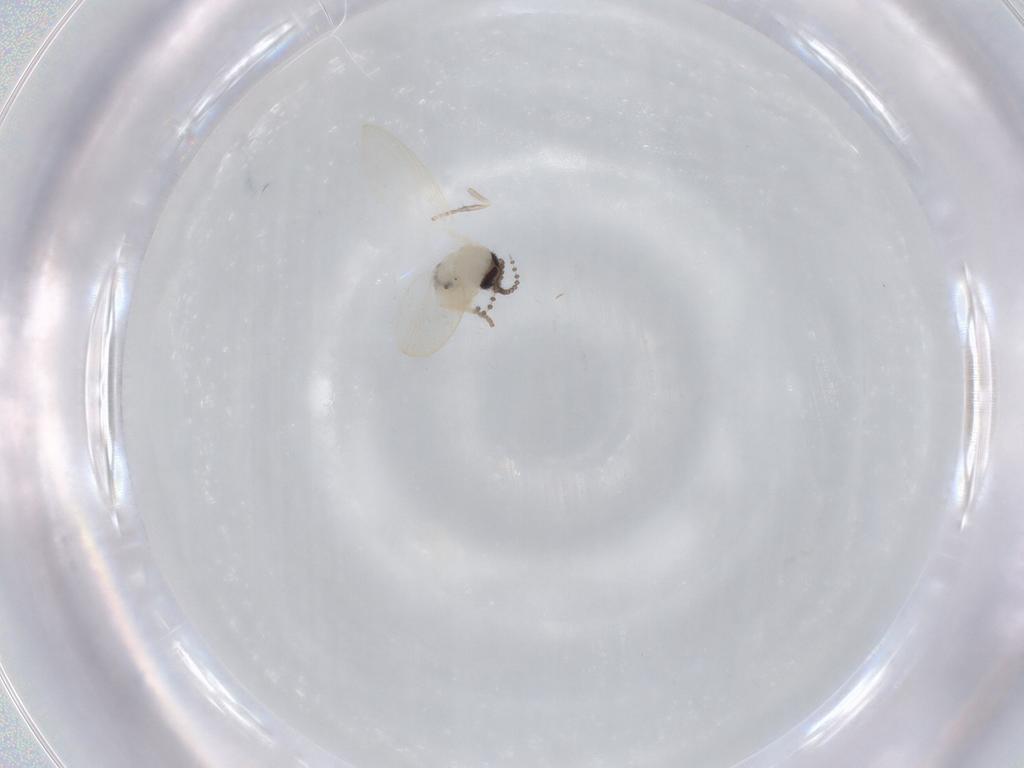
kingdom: Animalia
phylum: Arthropoda
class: Insecta
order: Diptera
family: Psychodidae
